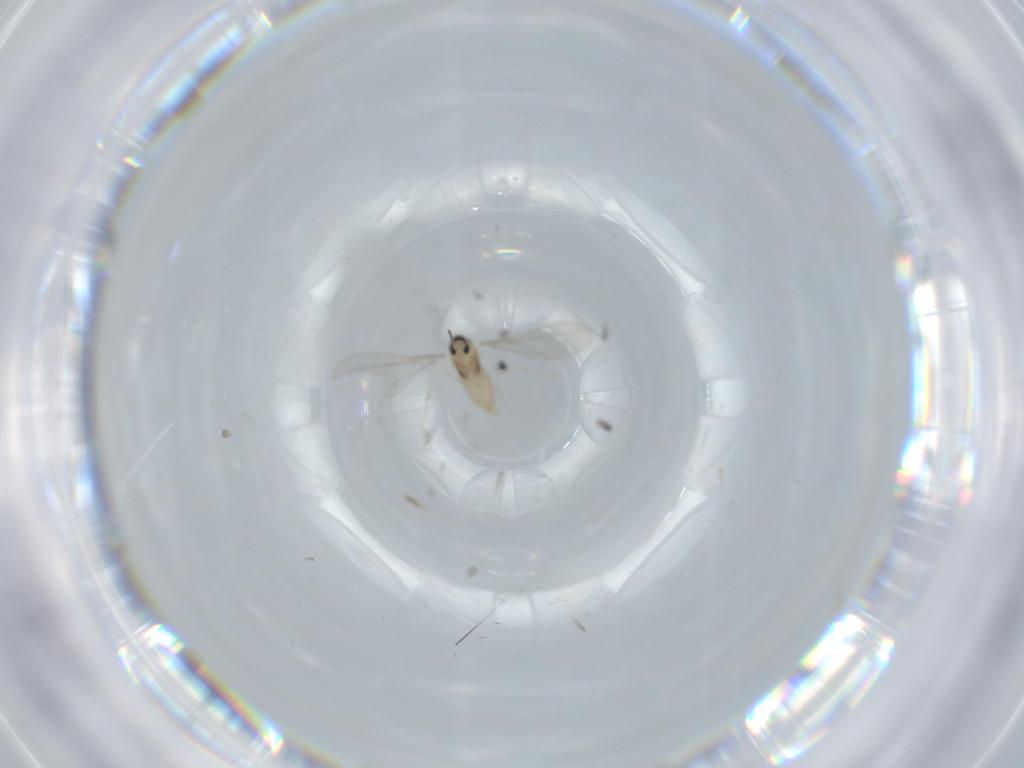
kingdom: Animalia
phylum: Arthropoda
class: Insecta
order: Diptera
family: Cecidomyiidae
